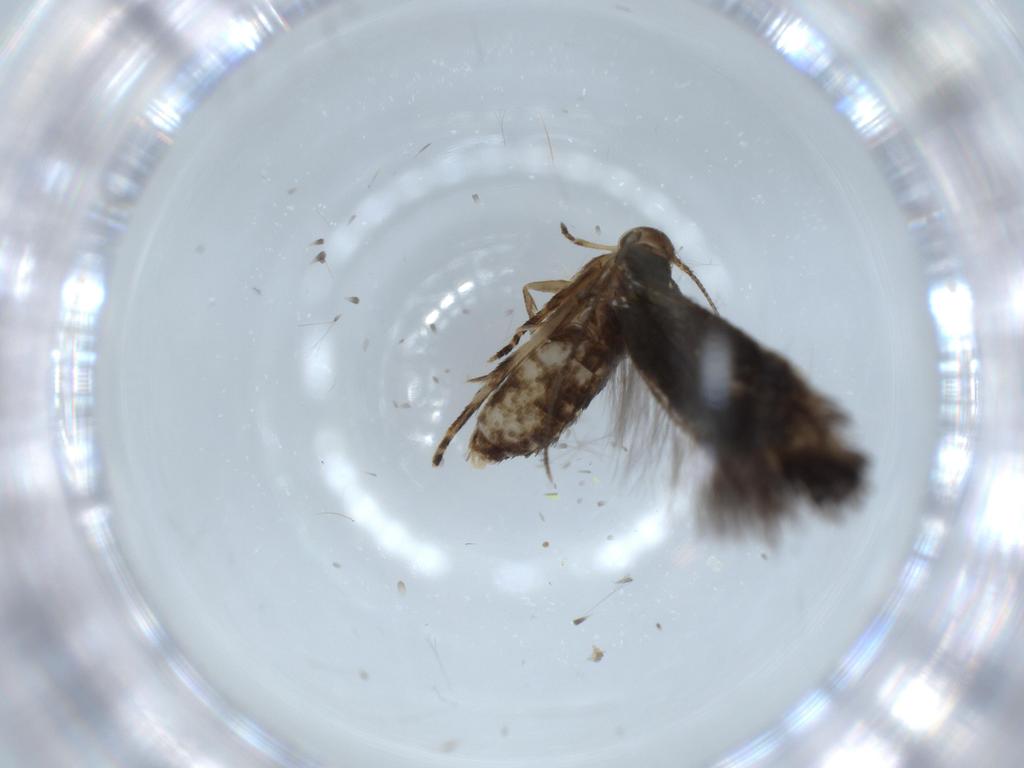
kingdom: Animalia
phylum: Arthropoda
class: Insecta
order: Lepidoptera
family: Gelechiidae
